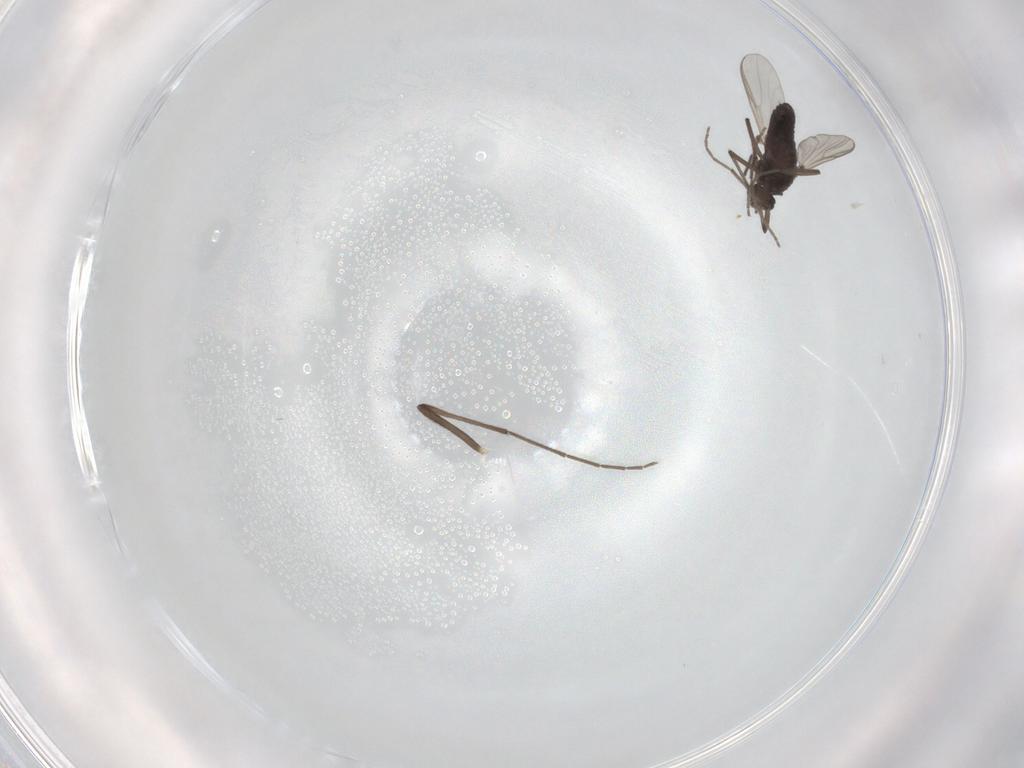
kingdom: Animalia
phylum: Arthropoda
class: Insecta
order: Diptera
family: Chironomidae
